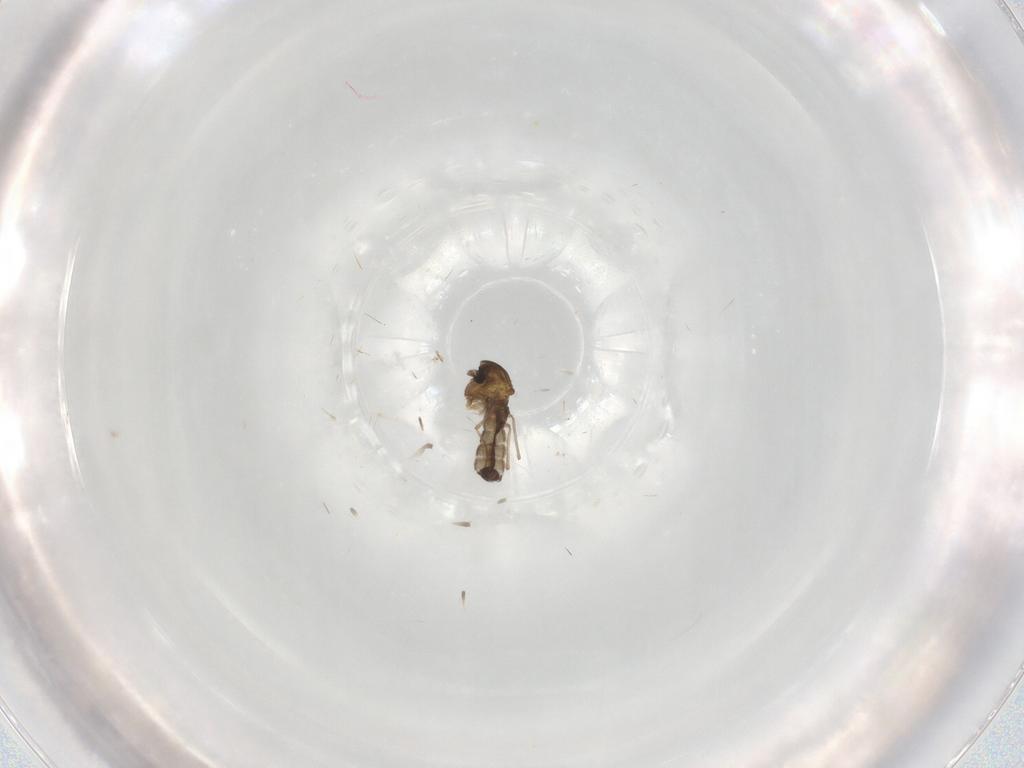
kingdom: Animalia
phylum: Arthropoda
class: Insecta
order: Diptera
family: Chironomidae
